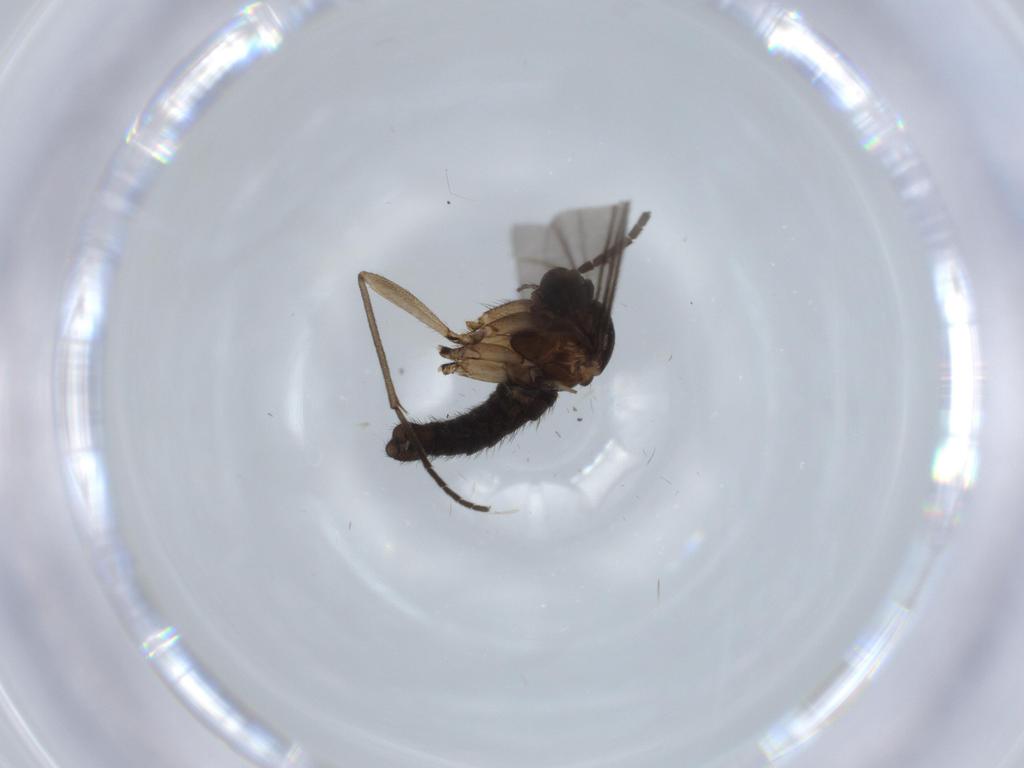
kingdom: Animalia
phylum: Arthropoda
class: Insecta
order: Diptera
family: Sciaridae
